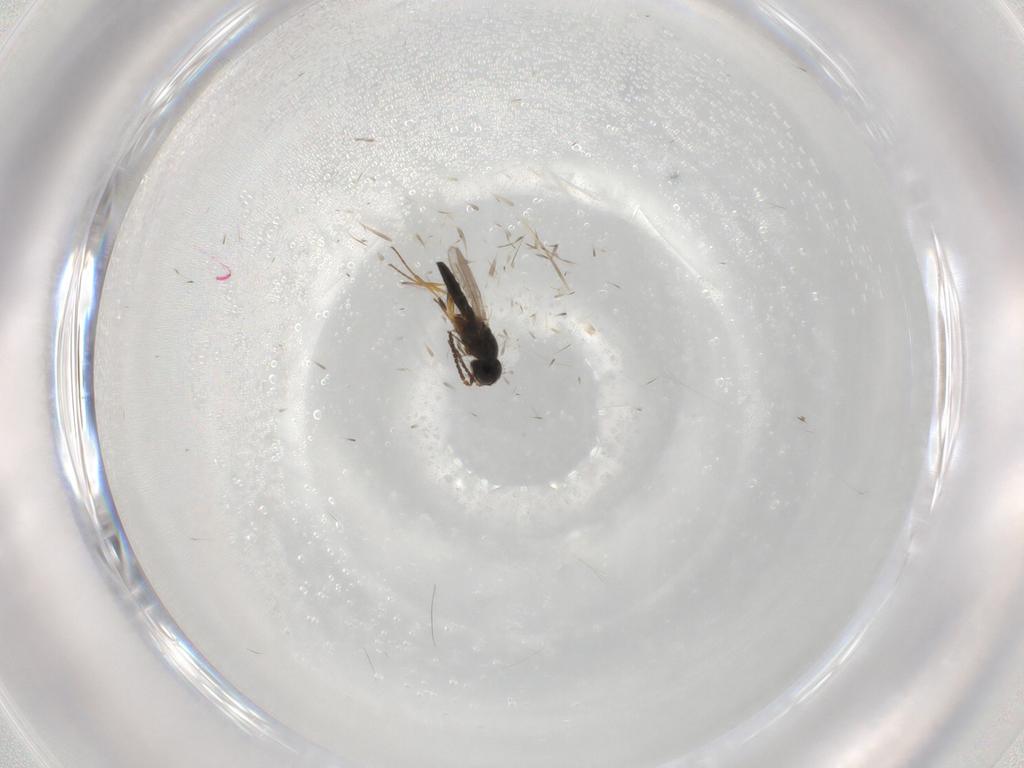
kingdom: Animalia
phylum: Arthropoda
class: Insecta
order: Hymenoptera
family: Scelionidae
